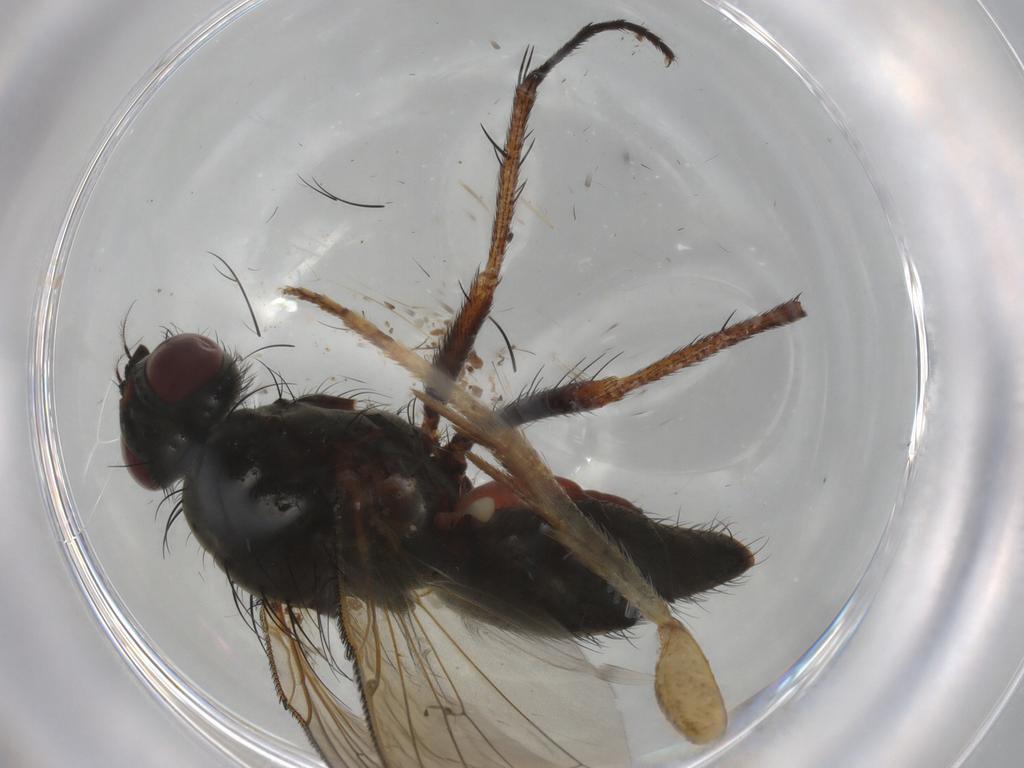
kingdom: Animalia
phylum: Arthropoda
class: Insecta
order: Diptera
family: Anthomyiidae
